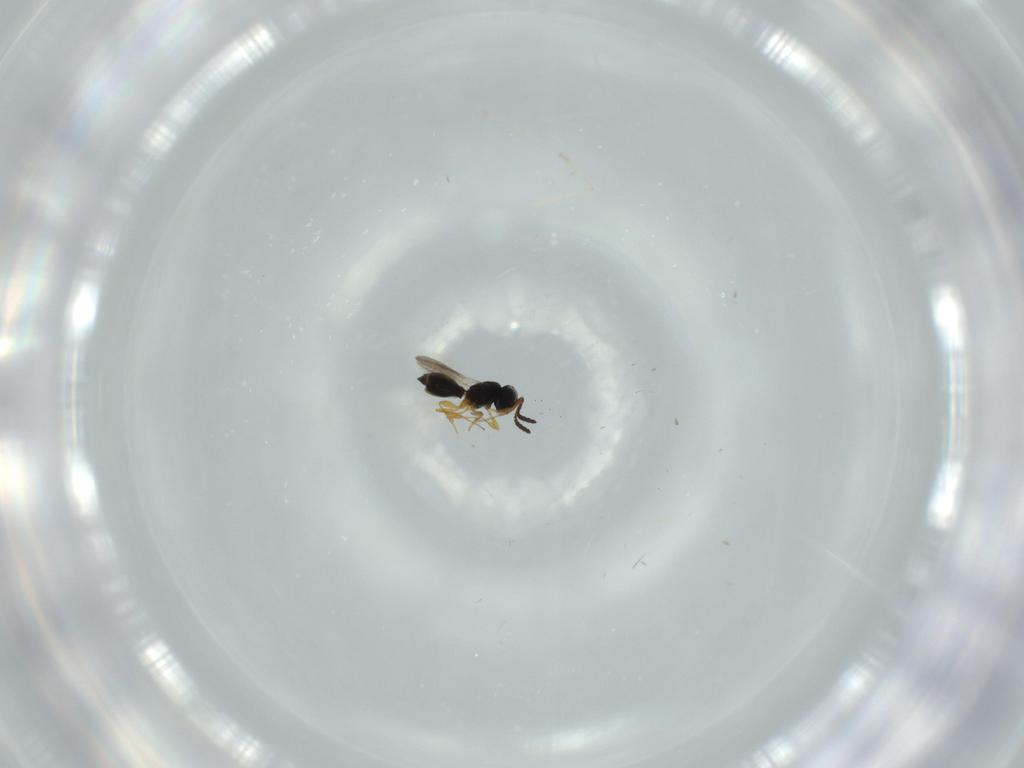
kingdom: Animalia
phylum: Arthropoda
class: Insecta
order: Hymenoptera
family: Scelionidae
